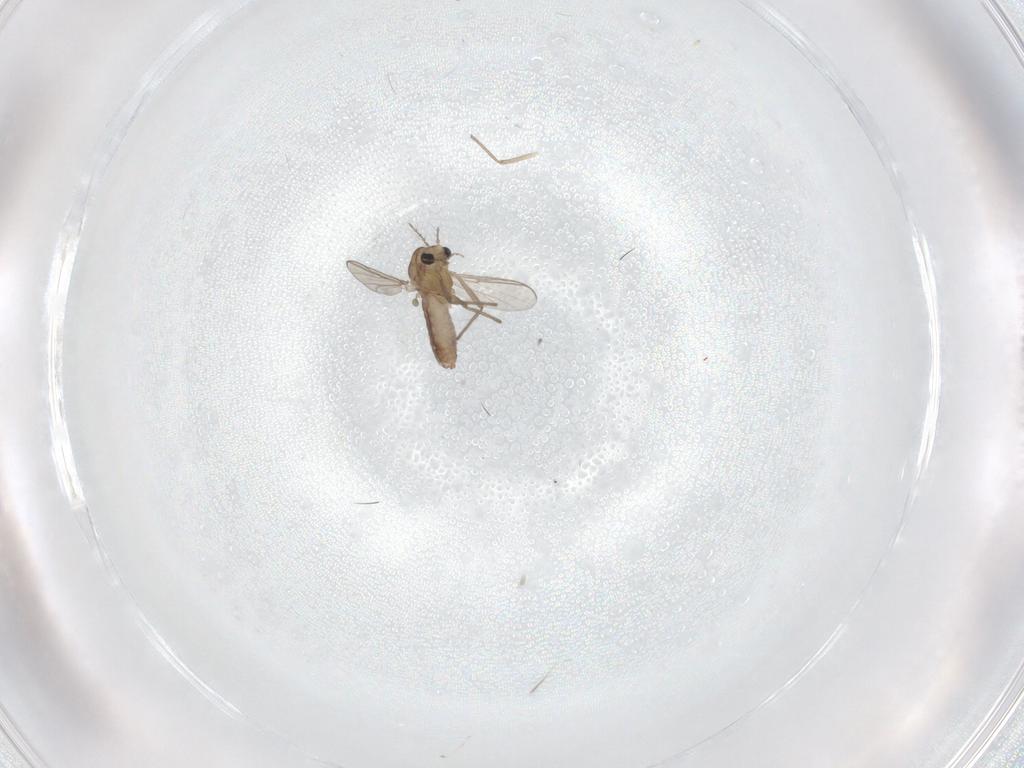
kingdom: Animalia
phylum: Arthropoda
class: Insecta
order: Diptera
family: Chironomidae
